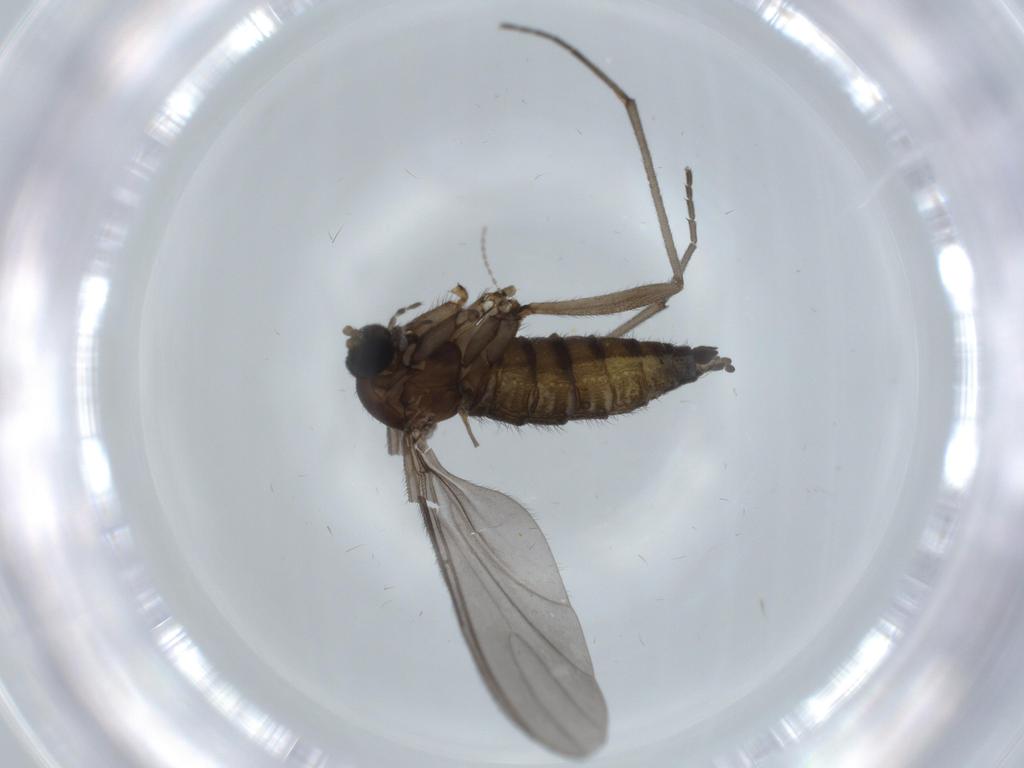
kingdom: Animalia
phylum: Arthropoda
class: Insecta
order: Diptera
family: Sciaridae
